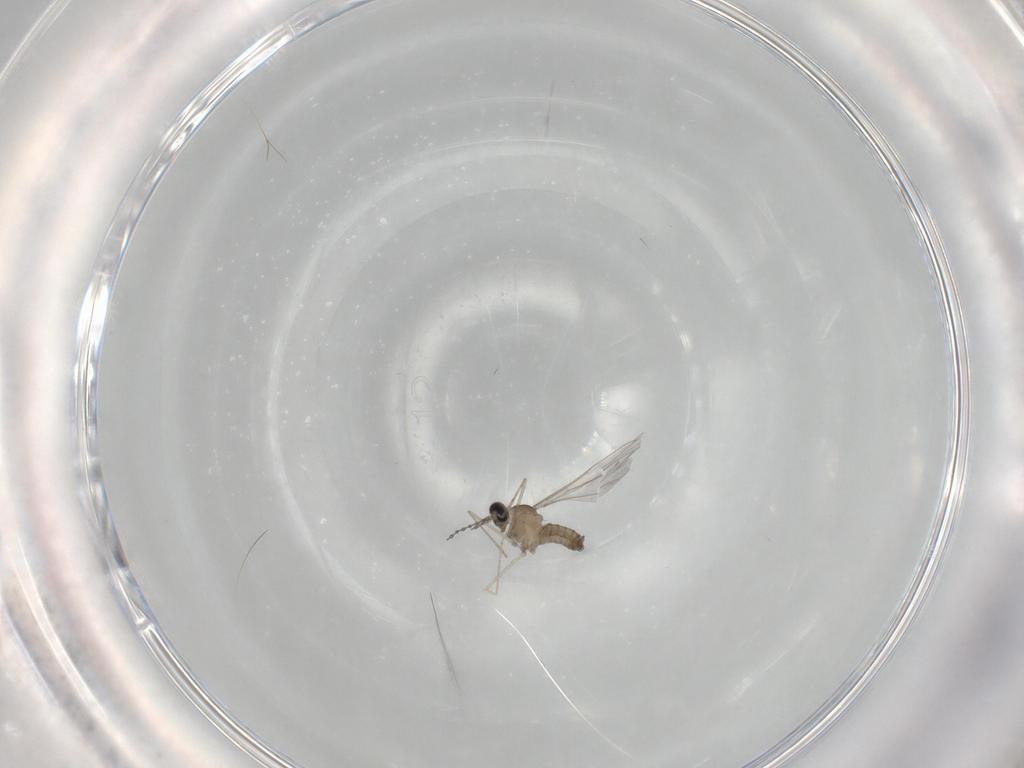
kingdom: Animalia
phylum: Arthropoda
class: Insecta
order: Diptera
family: Cecidomyiidae
